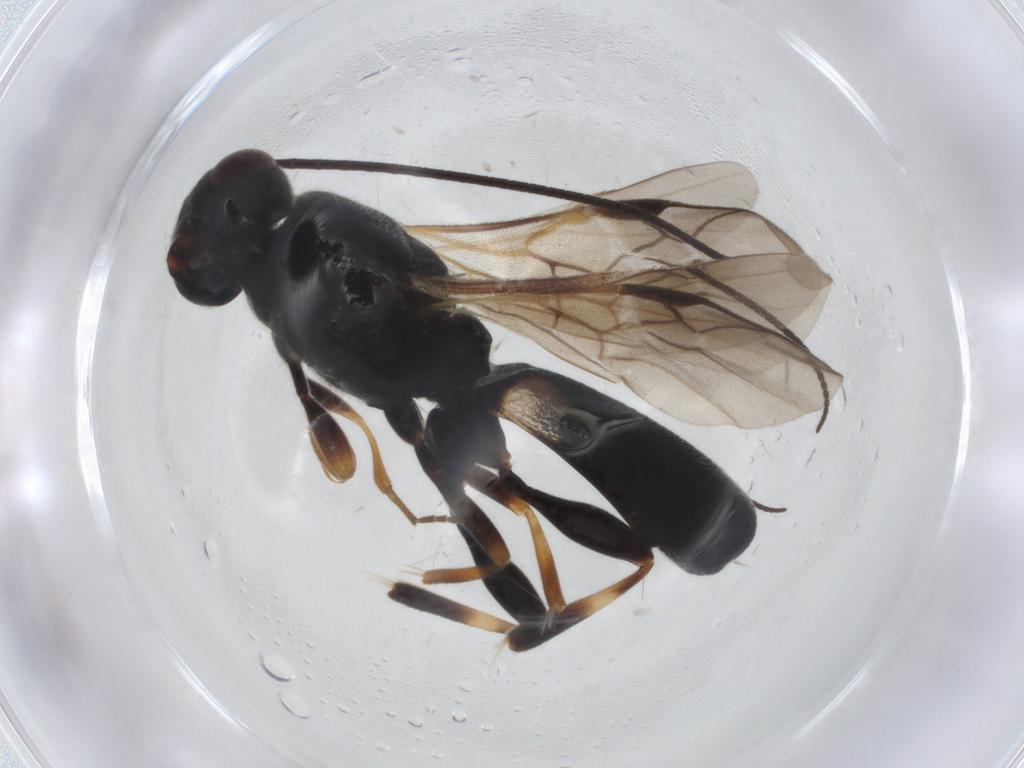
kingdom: Animalia
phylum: Arthropoda
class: Insecta
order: Hymenoptera
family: Braconidae
